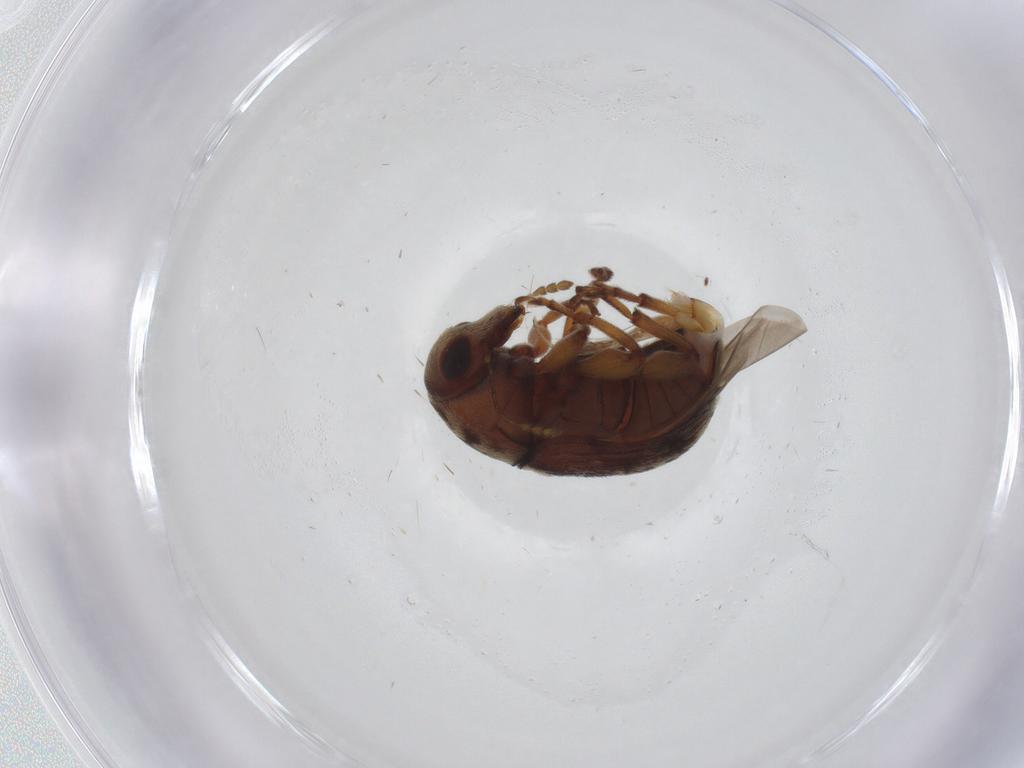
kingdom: Animalia
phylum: Arthropoda
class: Insecta
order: Coleoptera
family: Anthribidae
